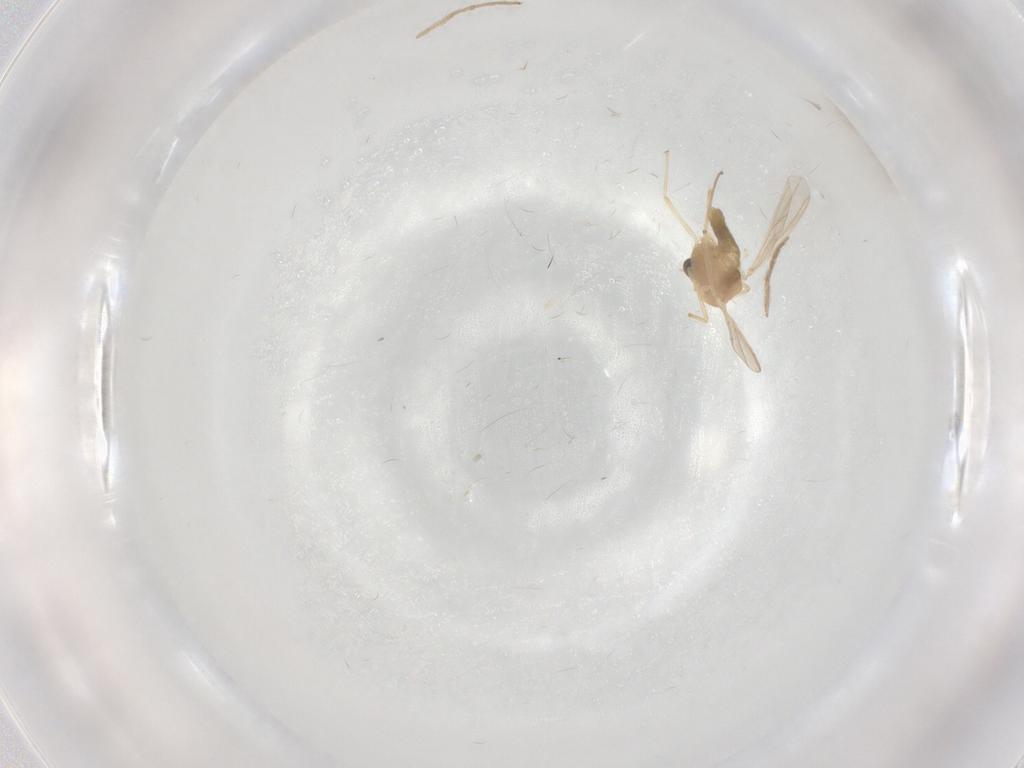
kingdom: Animalia
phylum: Arthropoda
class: Insecta
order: Diptera
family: Chironomidae
